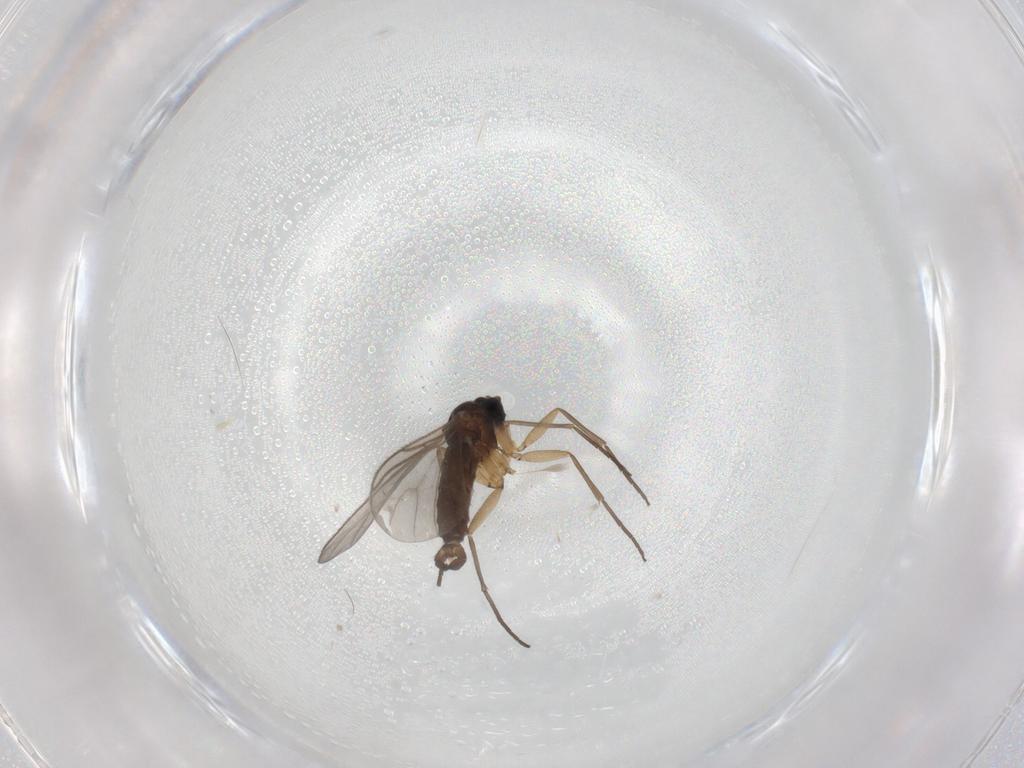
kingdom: Animalia
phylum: Arthropoda
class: Insecta
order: Diptera
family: Sciaridae
